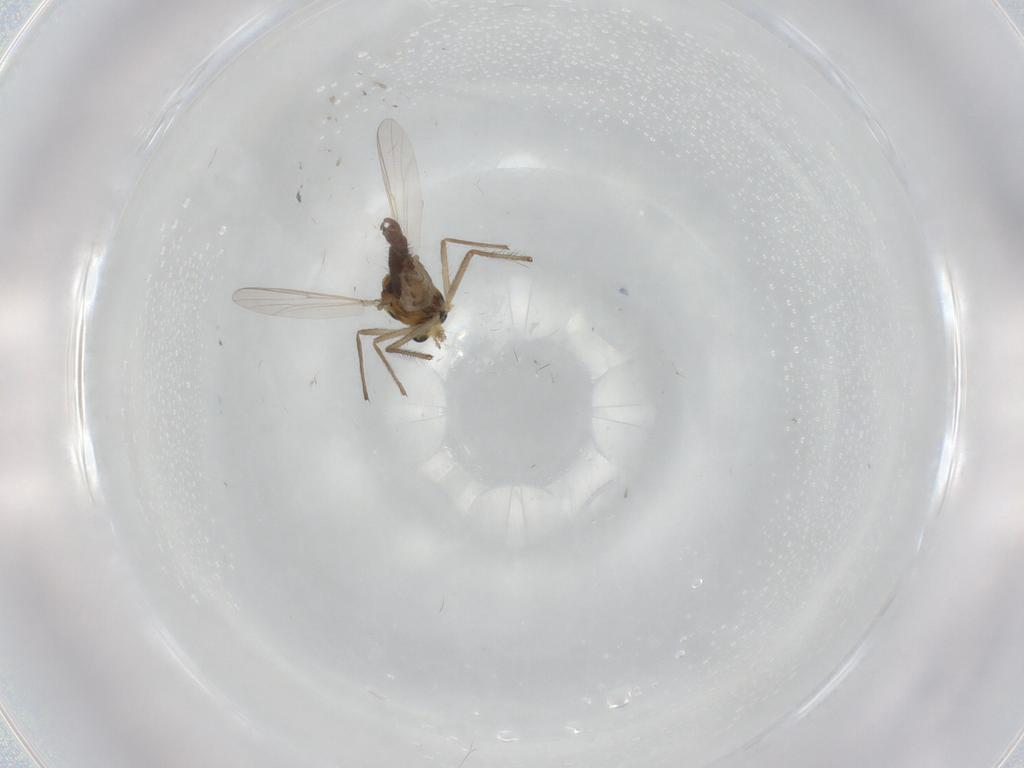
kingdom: Animalia
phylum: Arthropoda
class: Insecta
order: Diptera
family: Chironomidae
